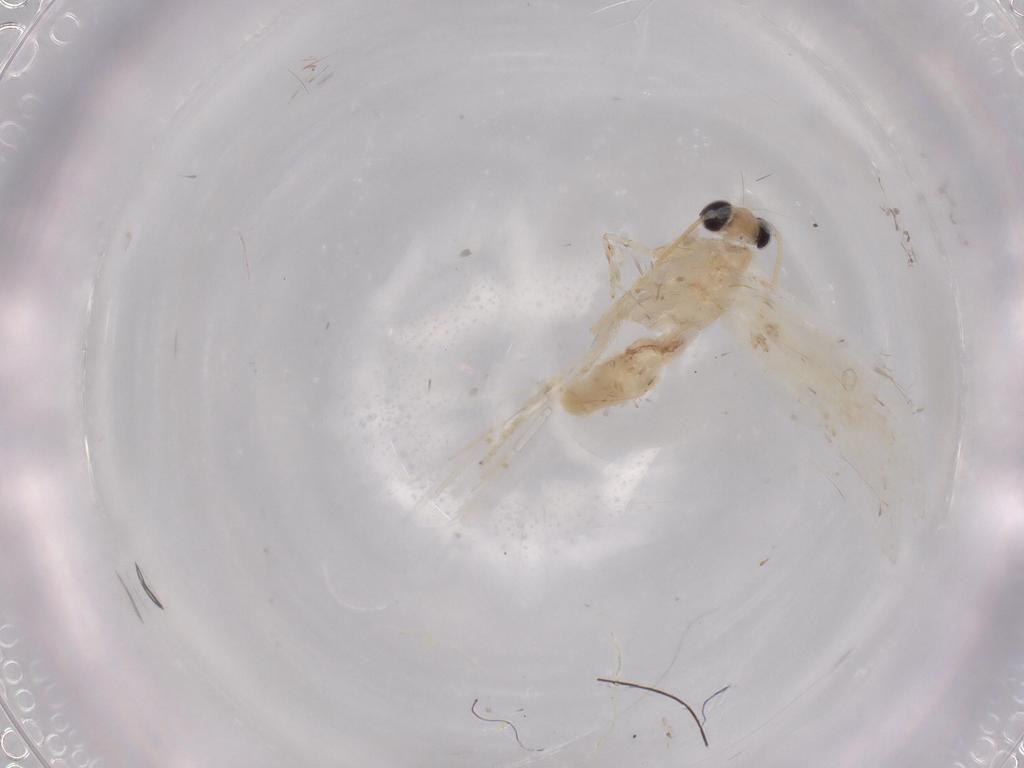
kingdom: Animalia
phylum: Arthropoda
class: Insecta
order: Lepidoptera
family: Tineidae
